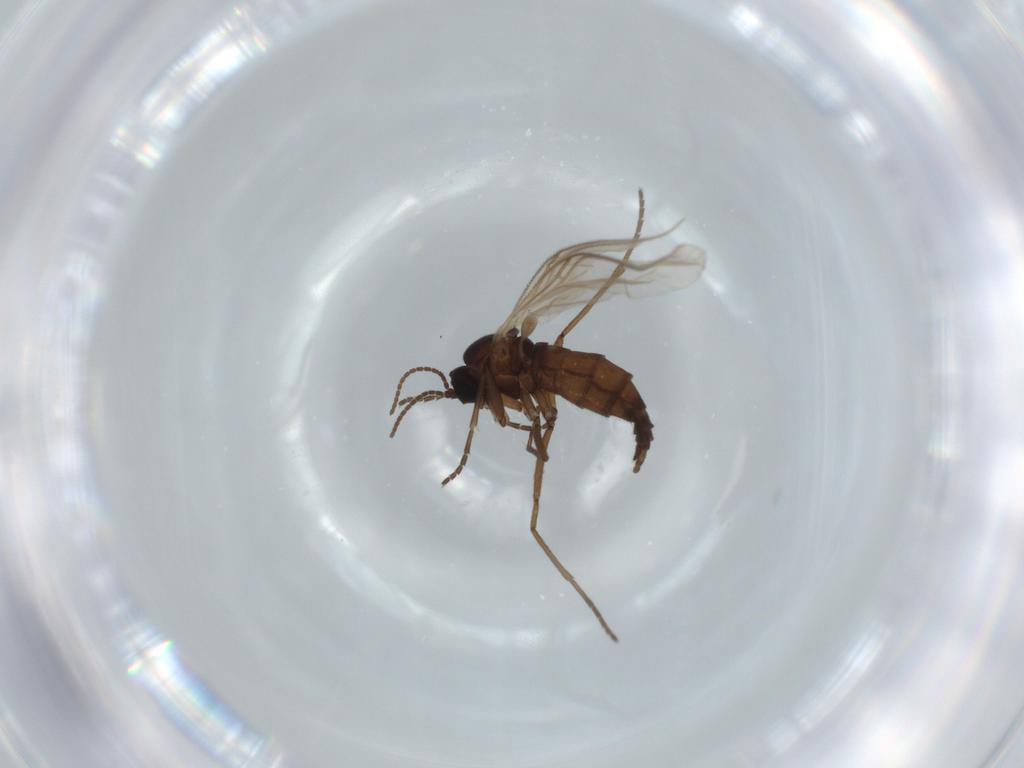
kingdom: Animalia
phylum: Arthropoda
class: Insecta
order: Diptera
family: Sciaridae
